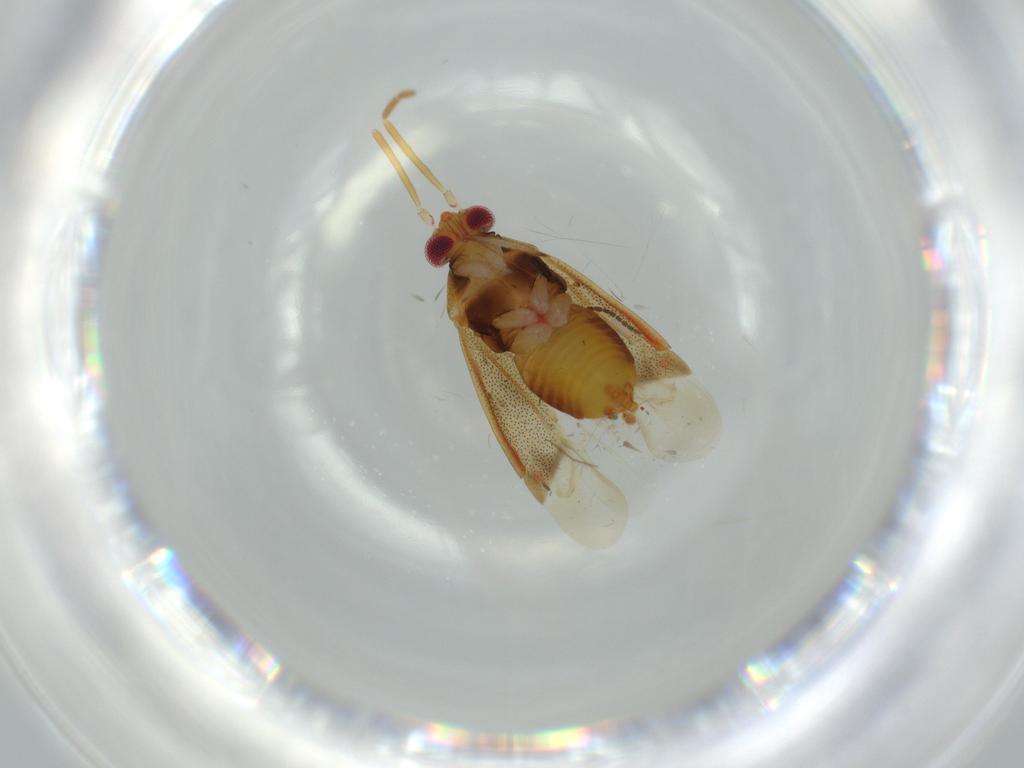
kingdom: Animalia
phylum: Arthropoda
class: Insecta
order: Hemiptera
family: Miridae
